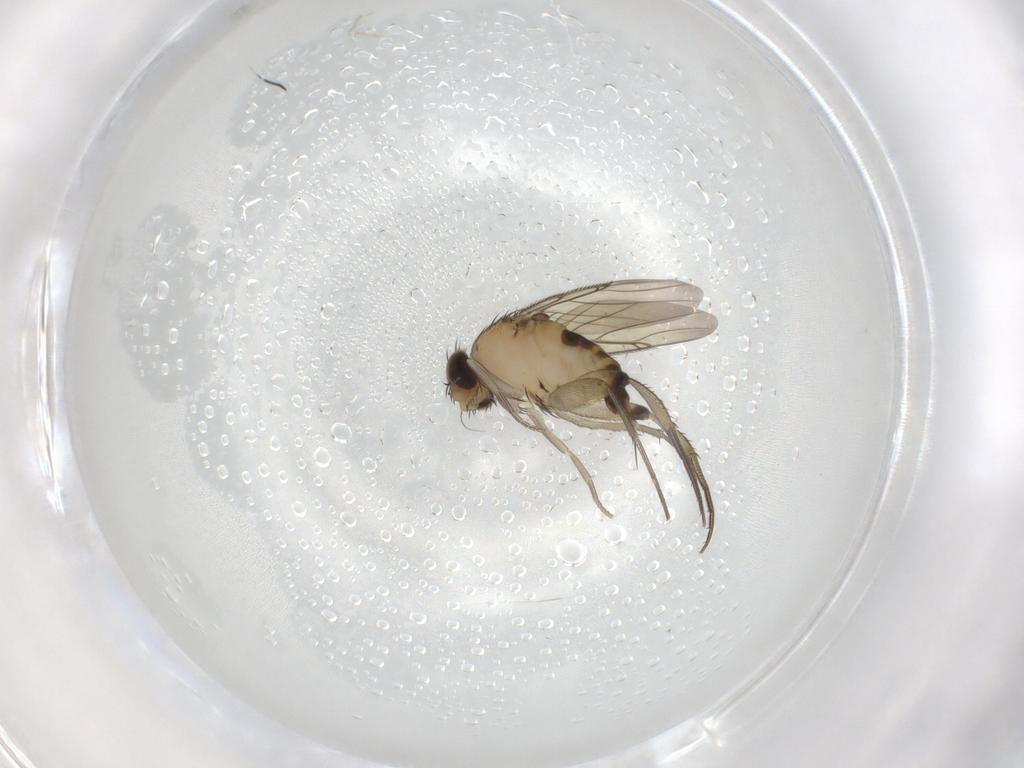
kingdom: Animalia
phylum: Arthropoda
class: Insecta
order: Diptera
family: Phoridae
